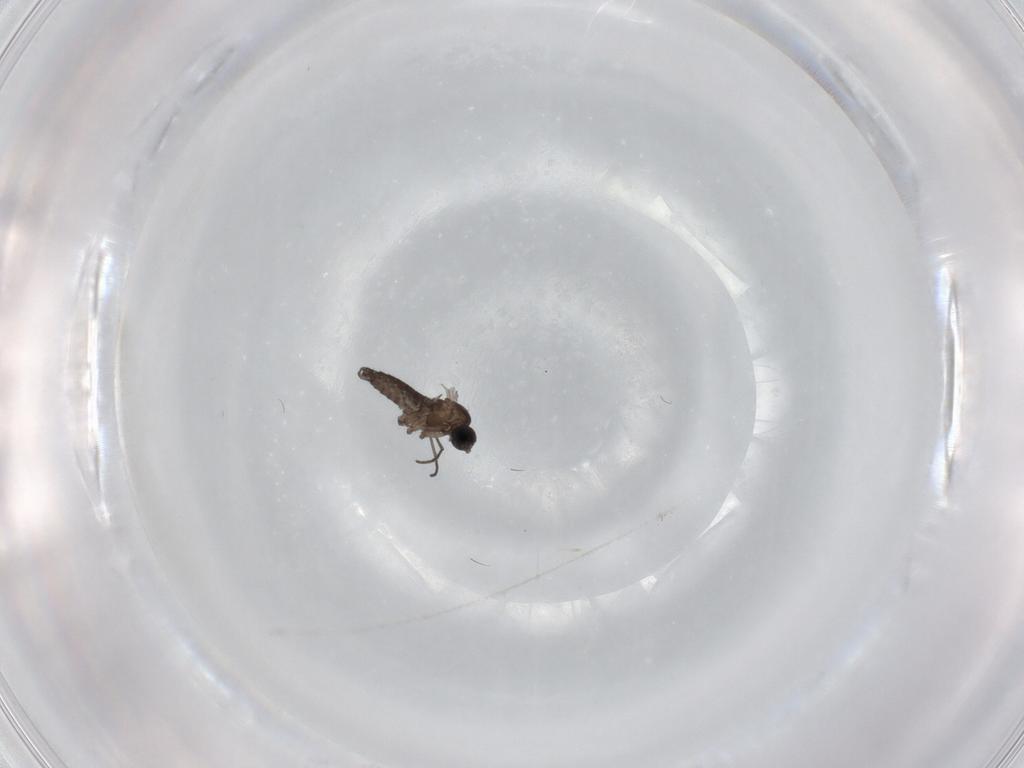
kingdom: Animalia
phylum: Arthropoda
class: Insecta
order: Diptera
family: Sciaridae
